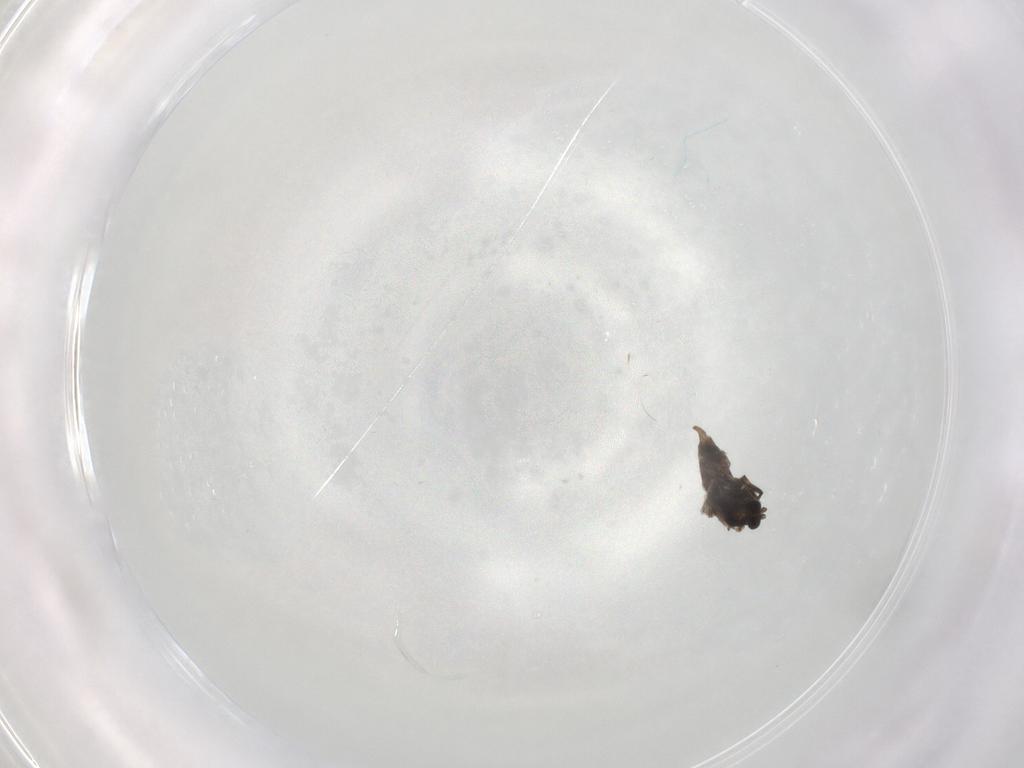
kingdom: Animalia
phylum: Arthropoda
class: Insecta
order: Diptera
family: Chironomidae
